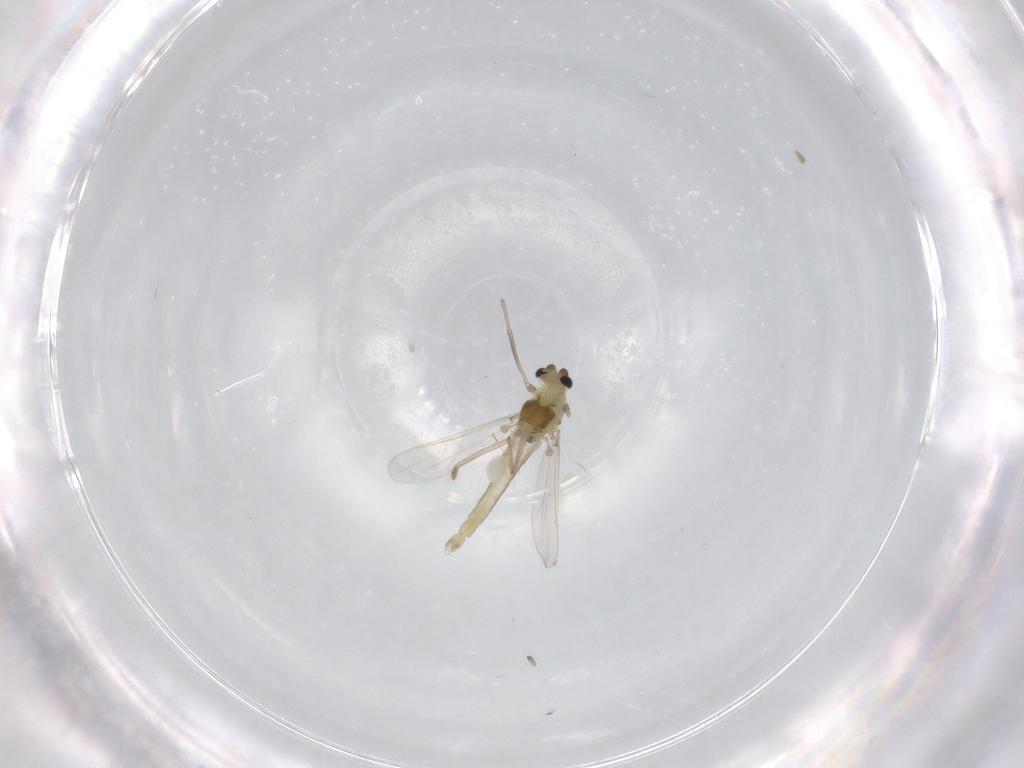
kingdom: Animalia
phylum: Arthropoda
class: Insecta
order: Diptera
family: Chironomidae
